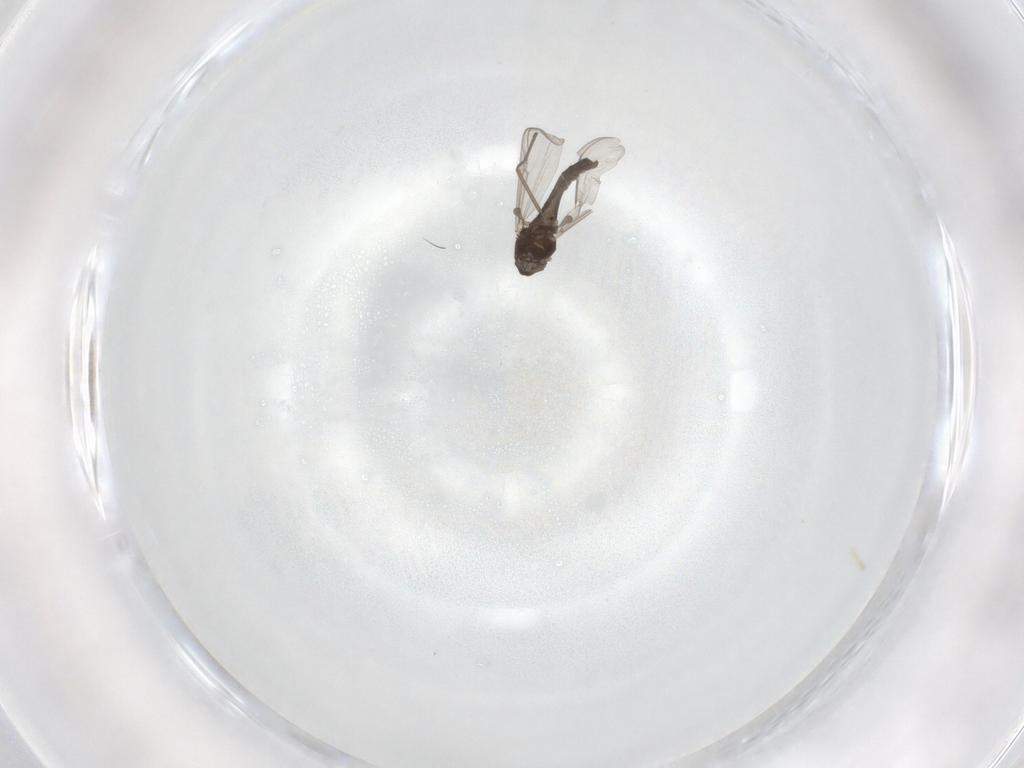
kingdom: Animalia
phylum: Arthropoda
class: Insecta
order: Diptera
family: Chironomidae
